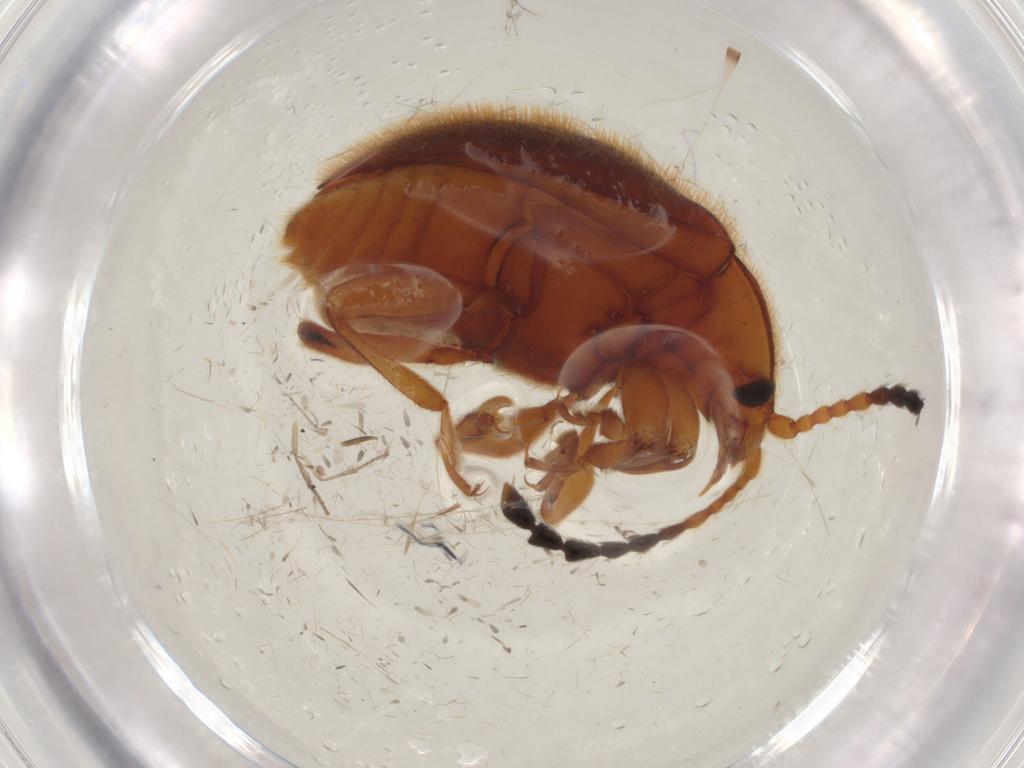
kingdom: Animalia
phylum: Arthropoda
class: Insecta
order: Coleoptera
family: Endomychidae
